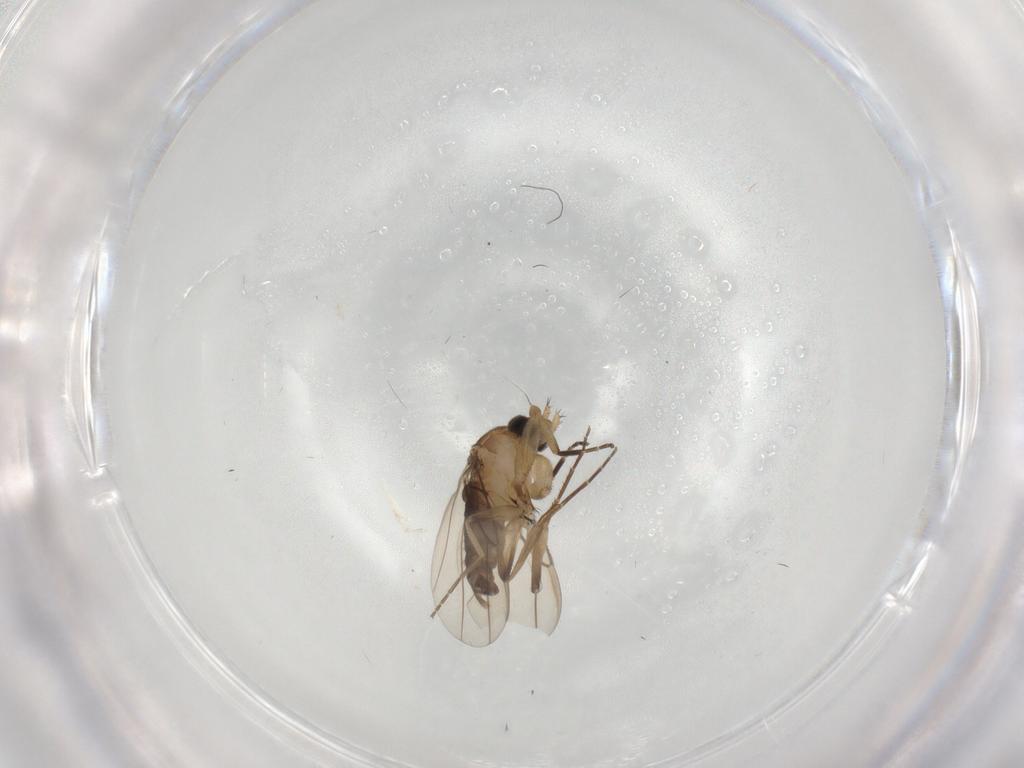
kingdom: Animalia
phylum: Arthropoda
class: Insecta
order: Diptera
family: Phoridae
